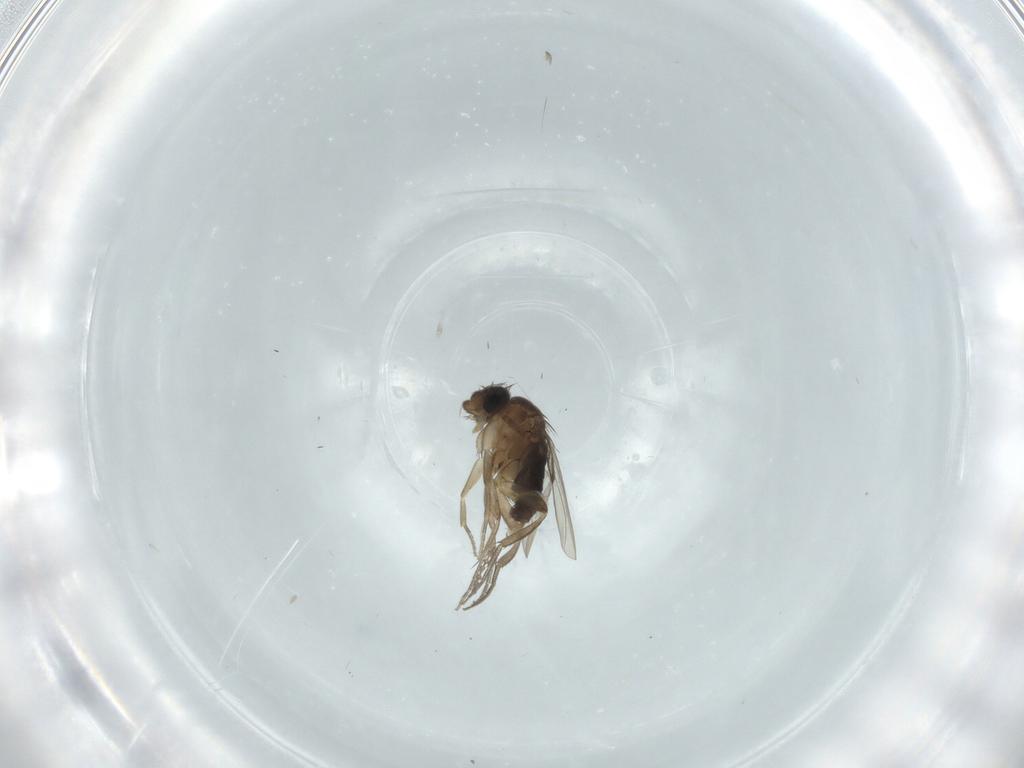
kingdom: Animalia
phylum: Arthropoda
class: Insecta
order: Diptera
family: Phoridae
